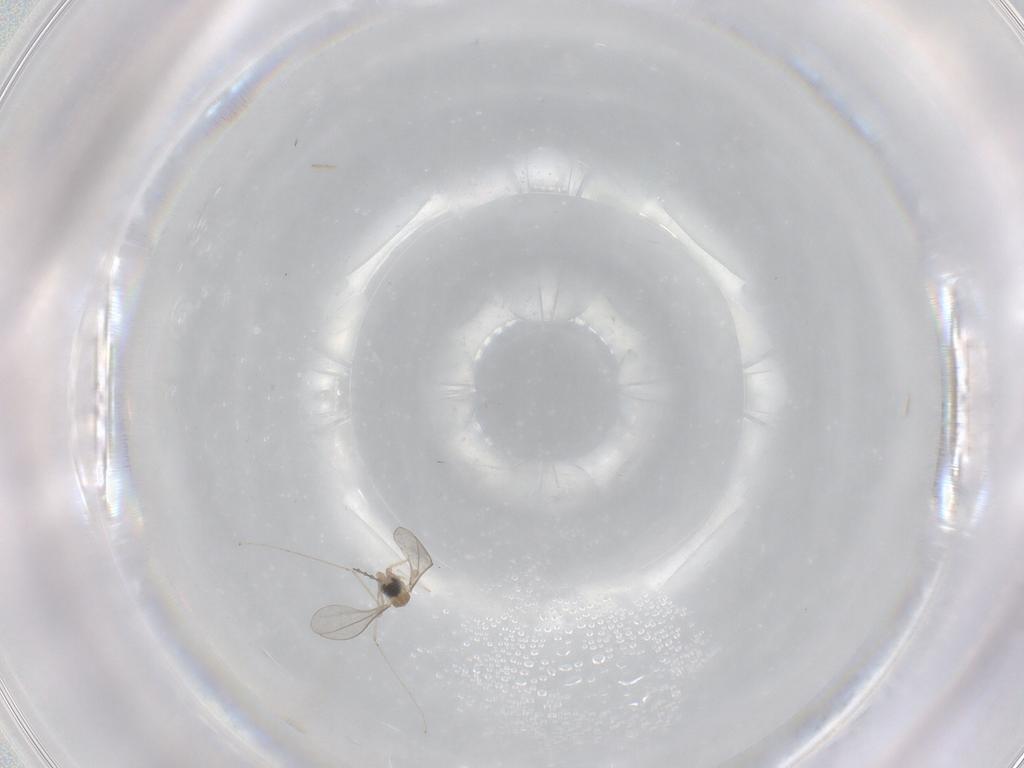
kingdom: Animalia
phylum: Arthropoda
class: Insecta
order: Diptera
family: Cecidomyiidae
